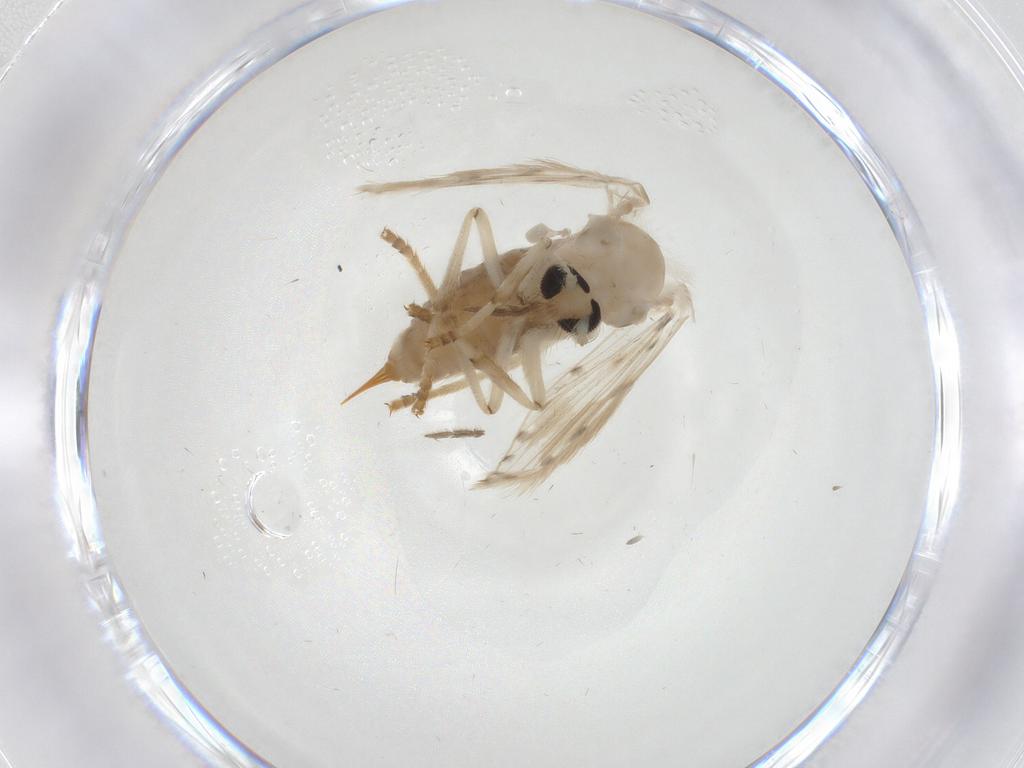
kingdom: Animalia
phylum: Arthropoda
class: Insecta
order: Diptera
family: Psychodidae
